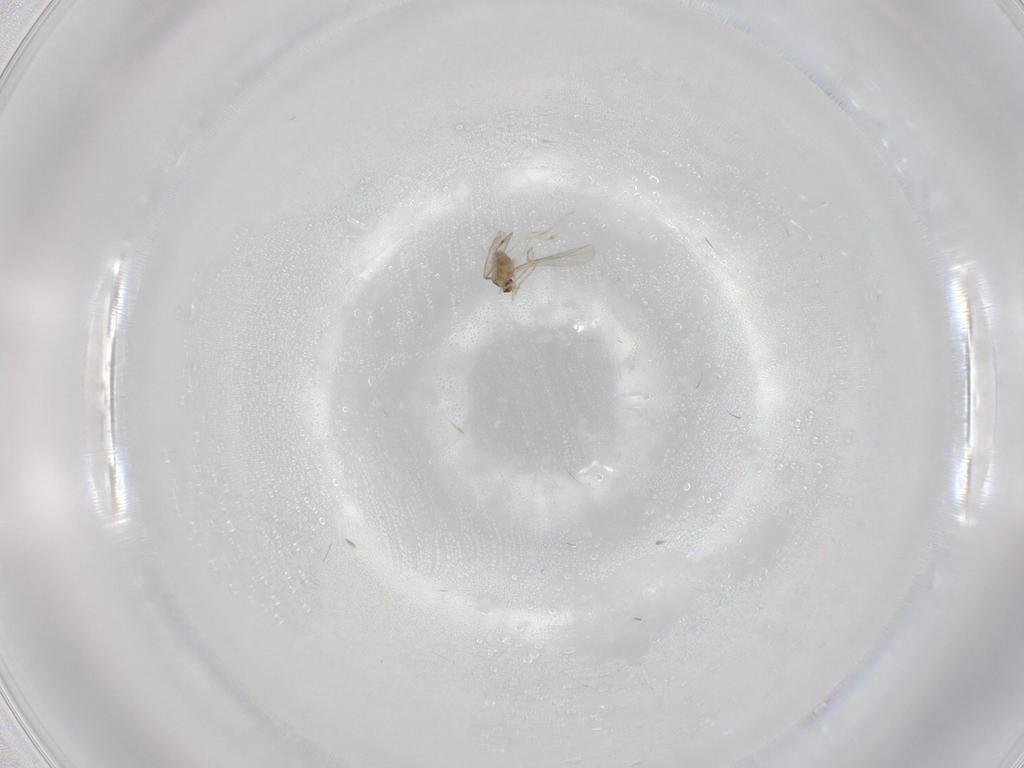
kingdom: Animalia
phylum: Arthropoda
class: Insecta
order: Diptera
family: Cecidomyiidae
